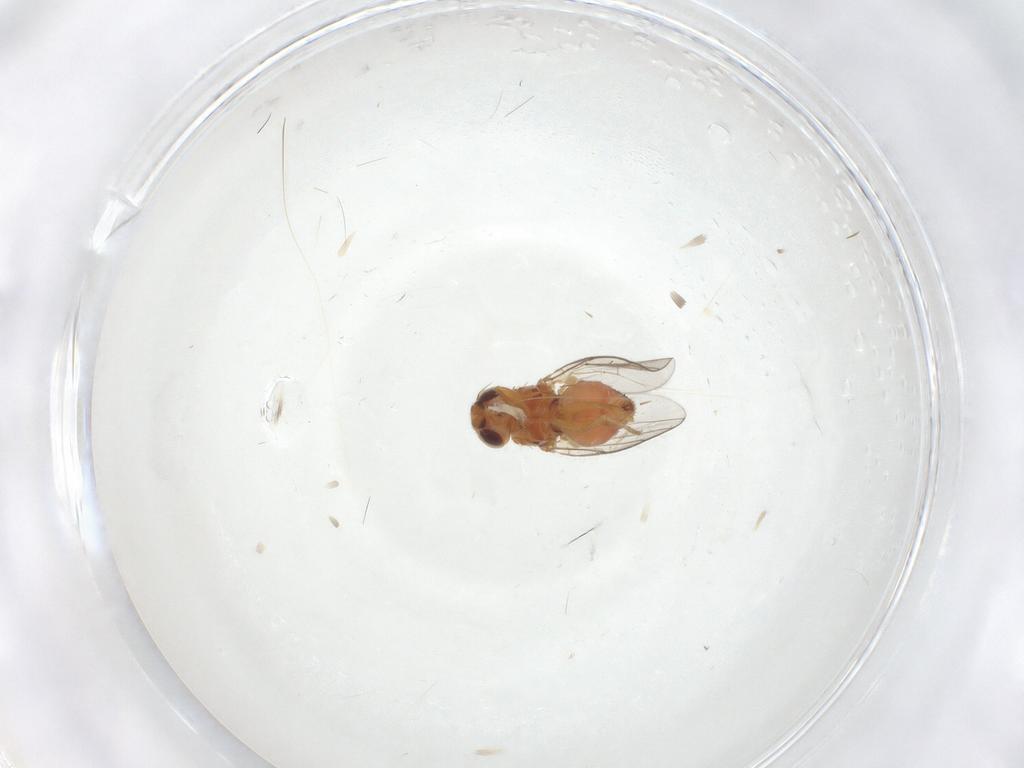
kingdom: Animalia
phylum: Arthropoda
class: Insecta
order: Diptera
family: Chloropidae
